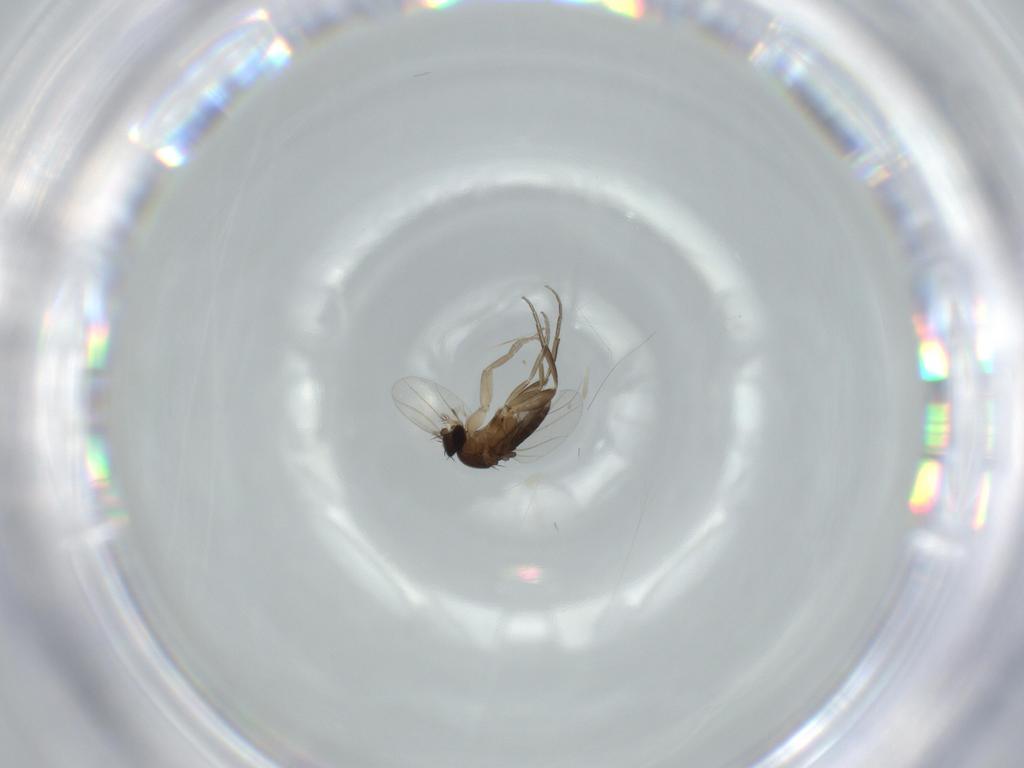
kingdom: Animalia
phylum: Arthropoda
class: Insecta
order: Diptera
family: Phoridae
